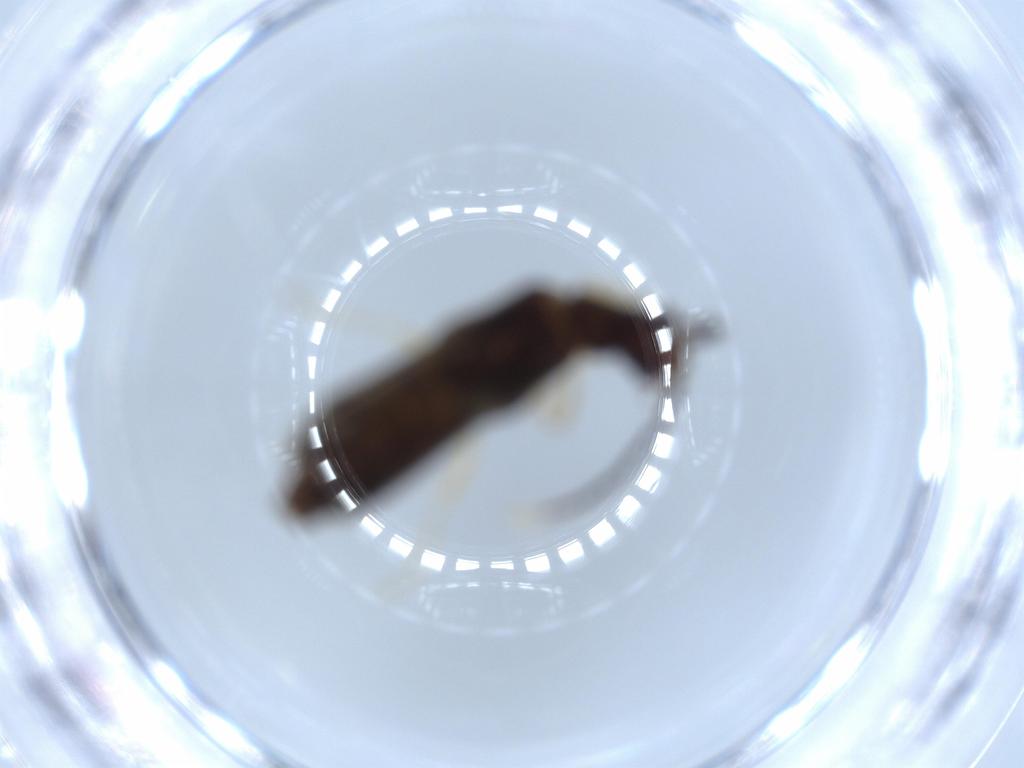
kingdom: Animalia
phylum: Arthropoda
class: Insecta
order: Coleoptera
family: Cantharidae
